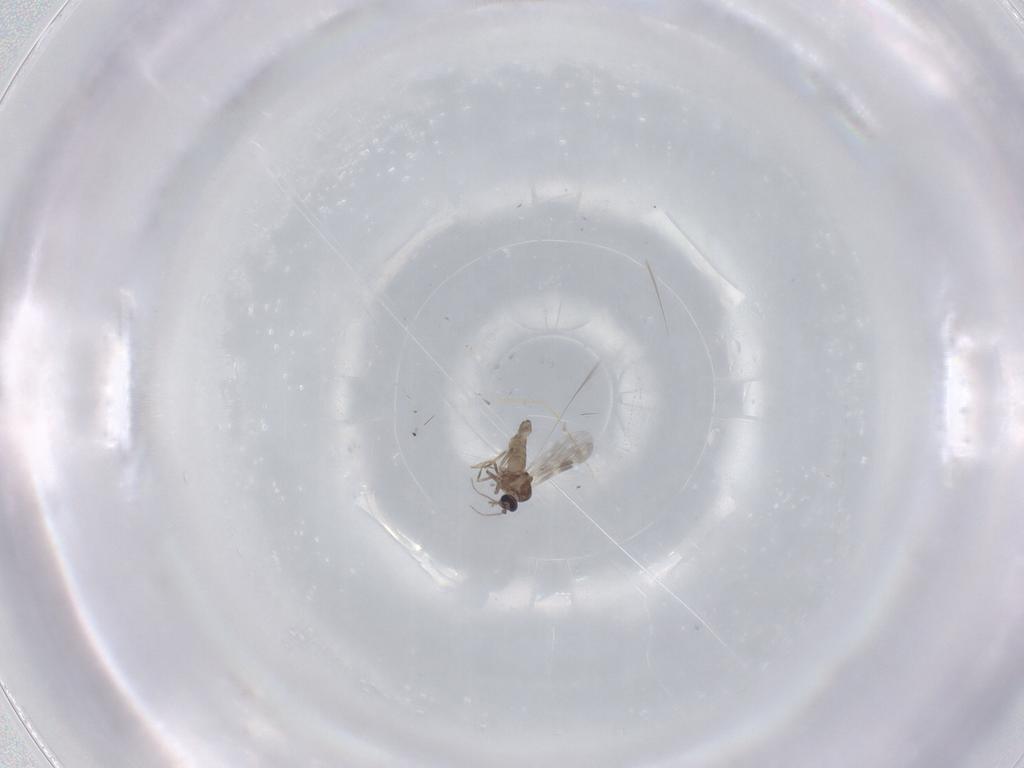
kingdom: Animalia
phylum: Arthropoda
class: Insecta
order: Diptera
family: Ceratopogonidae
